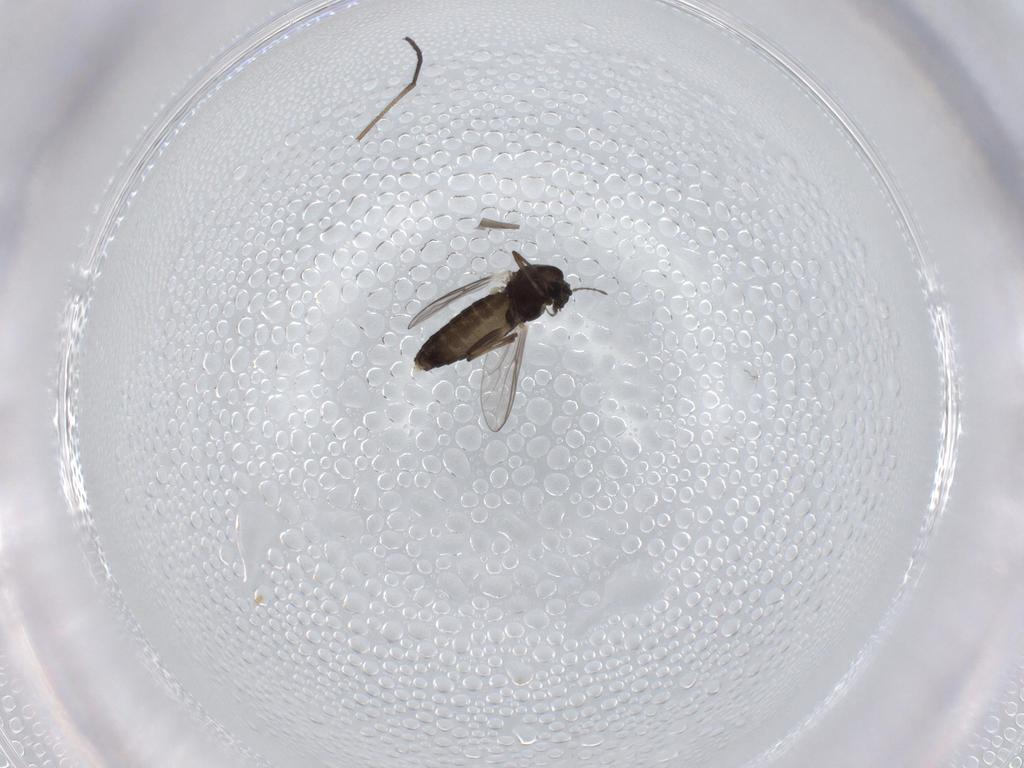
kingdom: Animalia
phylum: Arthropoda
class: Insecta
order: Diptera
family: Chironomidae
